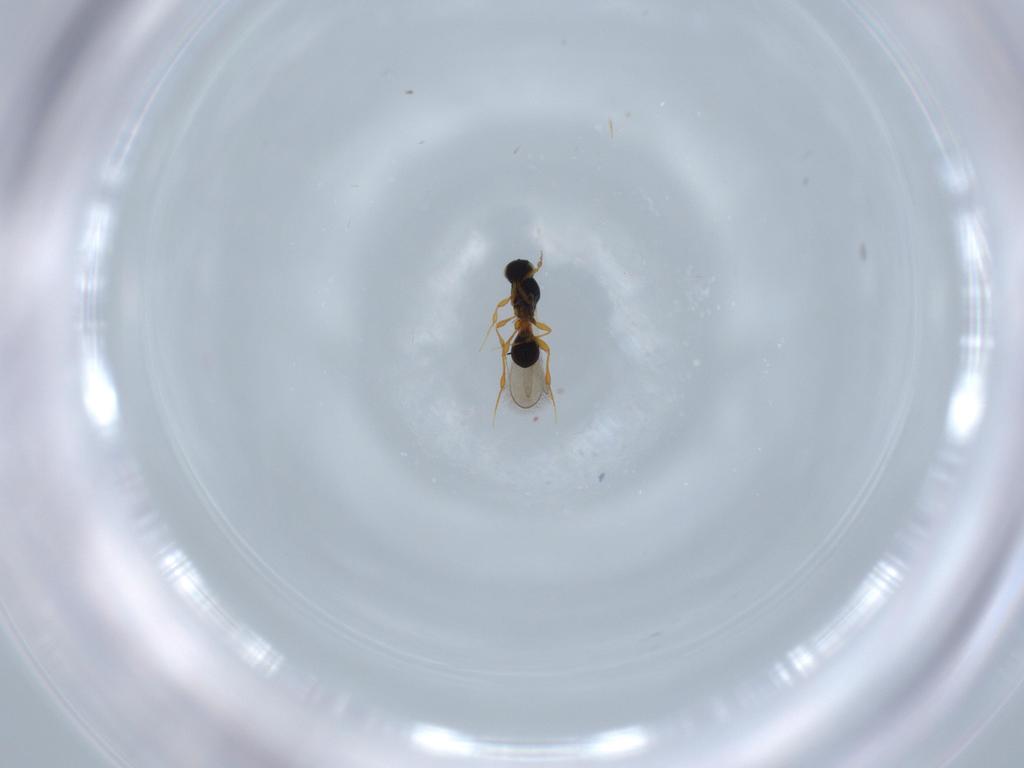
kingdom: Animalia
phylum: Arthropoda
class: Insecta
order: Hymenoptera
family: Platygastridae
